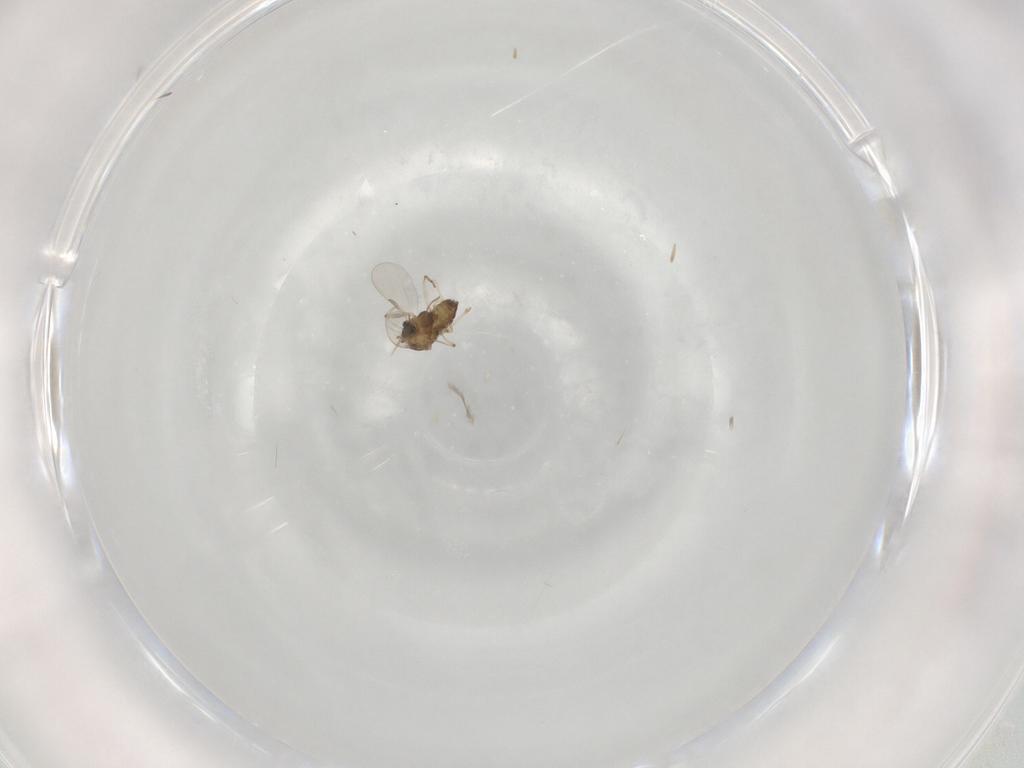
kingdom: Animalia
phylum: Arthropoda
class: Insecta
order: Diptera
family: Chironomidae
